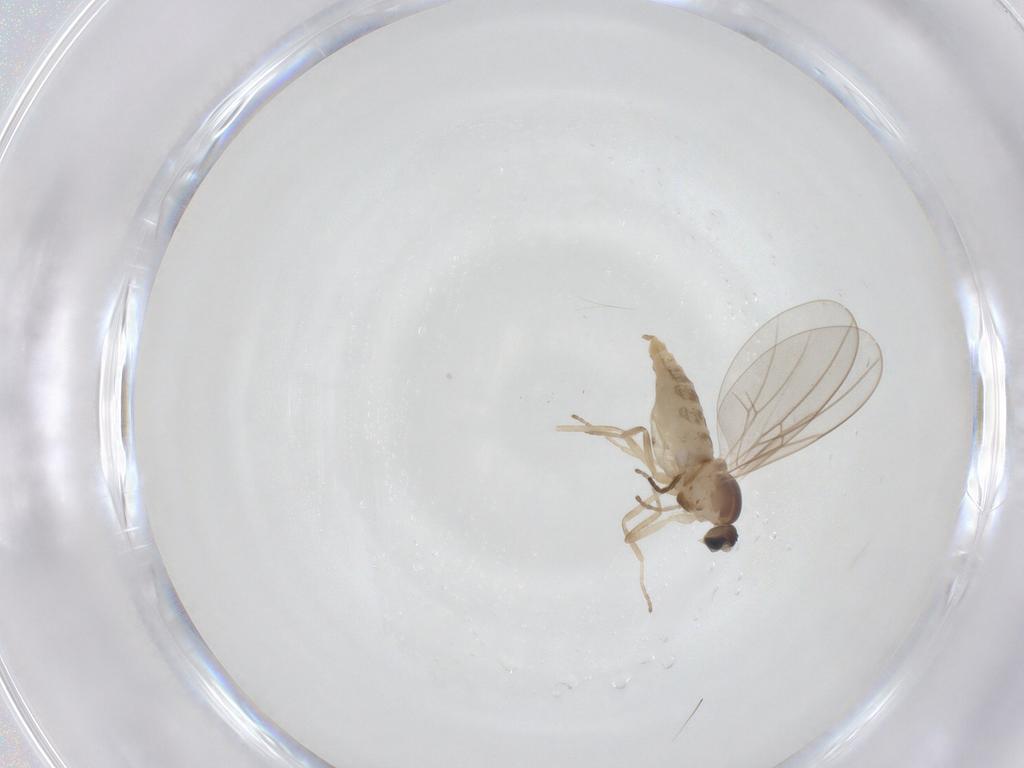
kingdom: Animalia
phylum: Arthropoda
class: Insecta
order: Diptera
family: Cecidomyiidae
